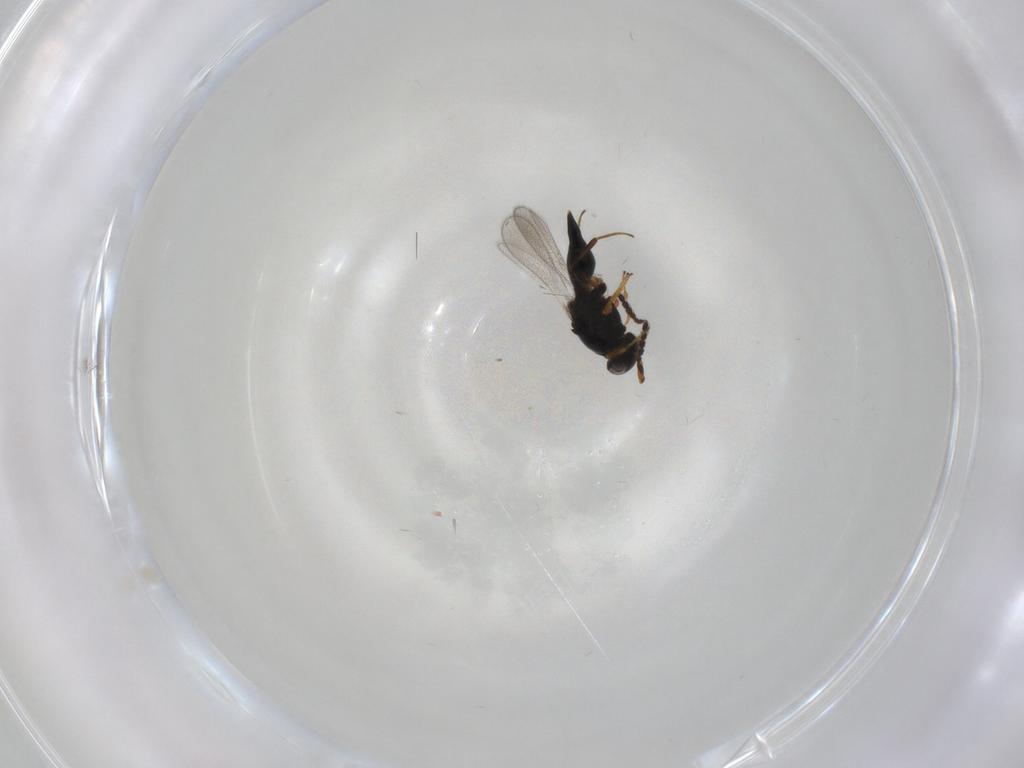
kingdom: Animalia
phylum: Arthropoda
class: Insecta
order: Hymenoptera
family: Platygastridae
